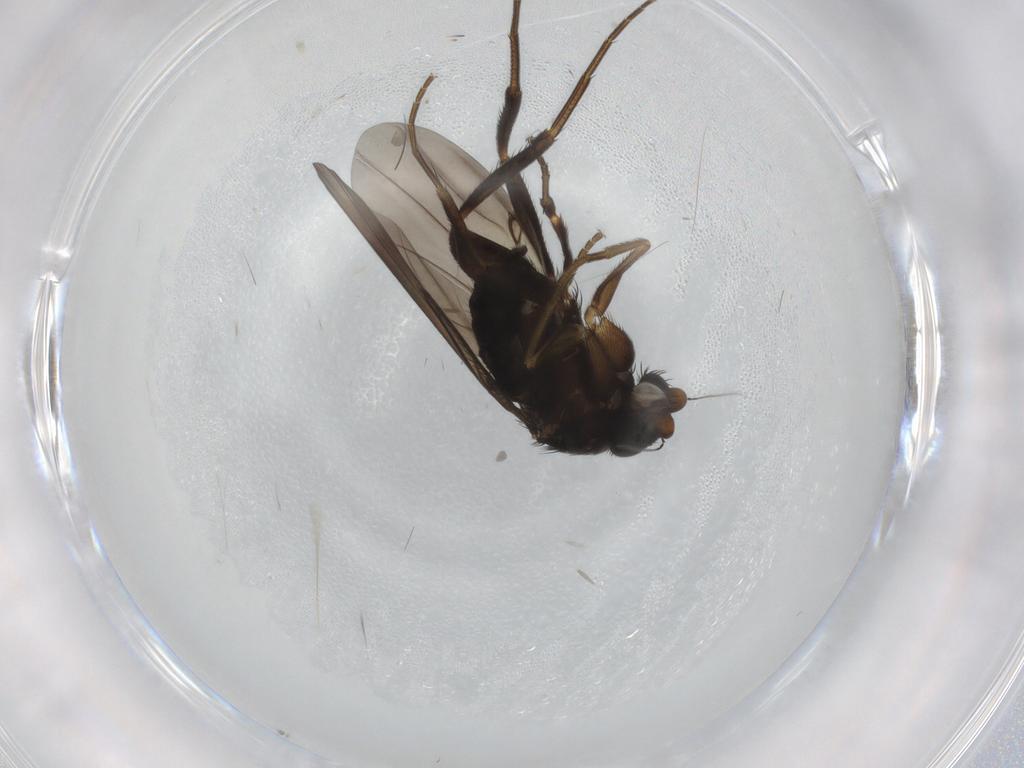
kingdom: Animalia
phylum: Arthropoda
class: Insecta
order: Diptera
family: Phoridae
